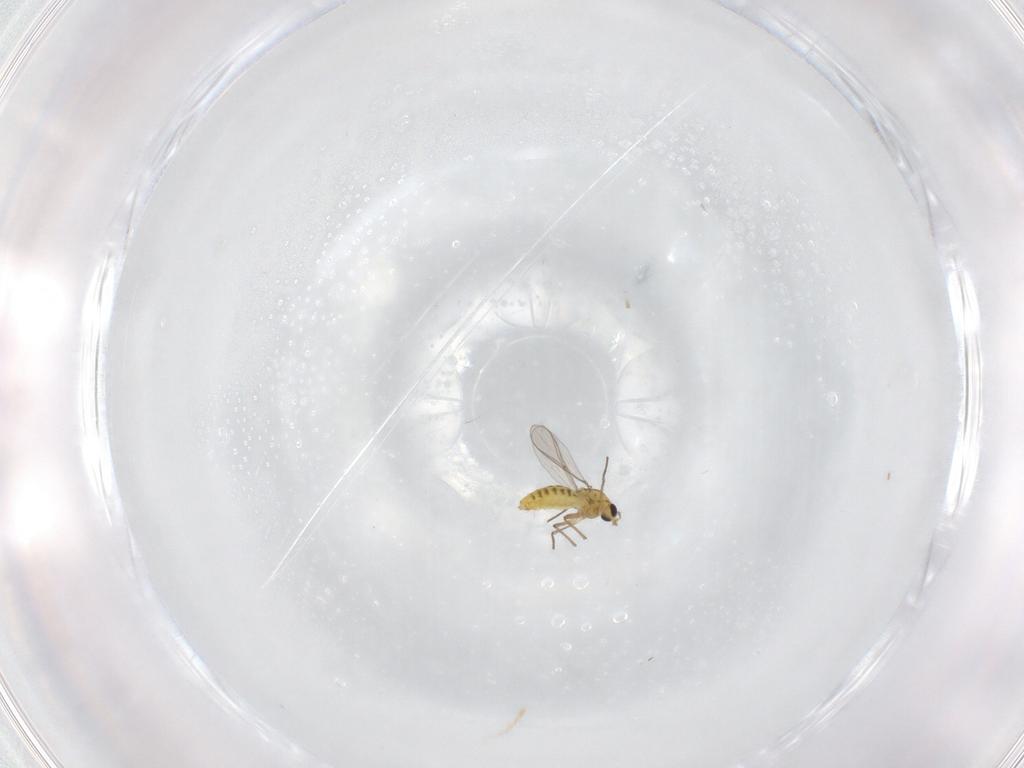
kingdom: Animalia
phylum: Arthropoda
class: Insecta
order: Diptera
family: Chironomidae
